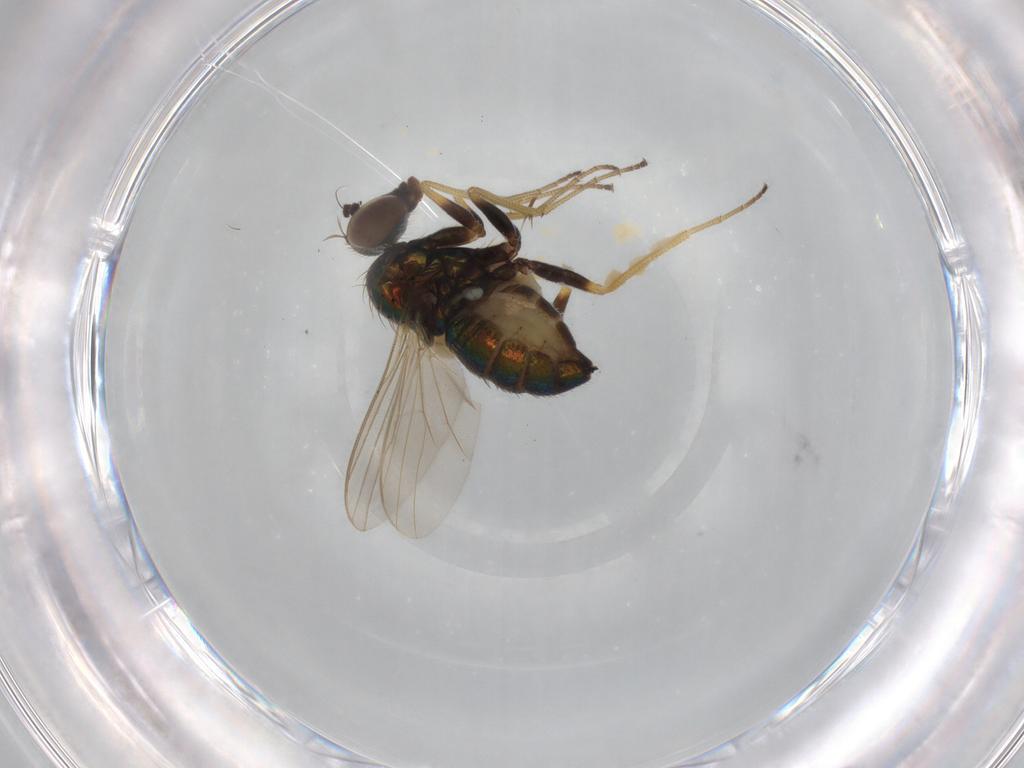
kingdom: Animalia
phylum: Arthropoda
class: Insecta
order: Diptera
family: Dolichopodidae
